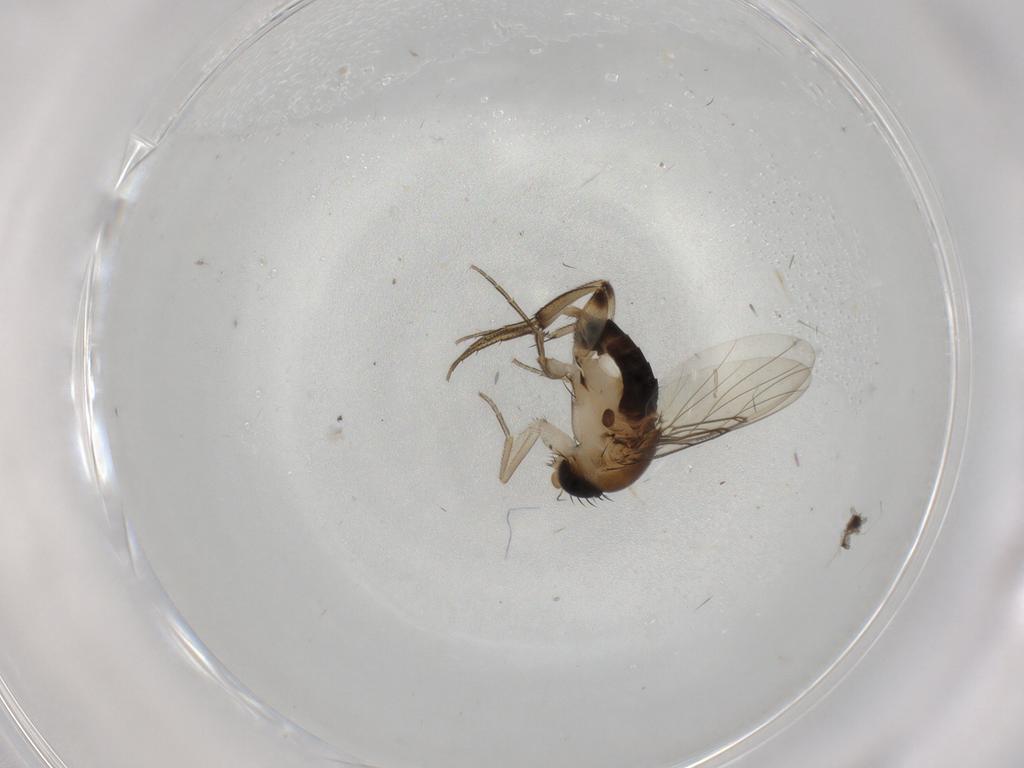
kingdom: Animalia
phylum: Arthropoda
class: Insecta
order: Diptera
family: Phoridae
